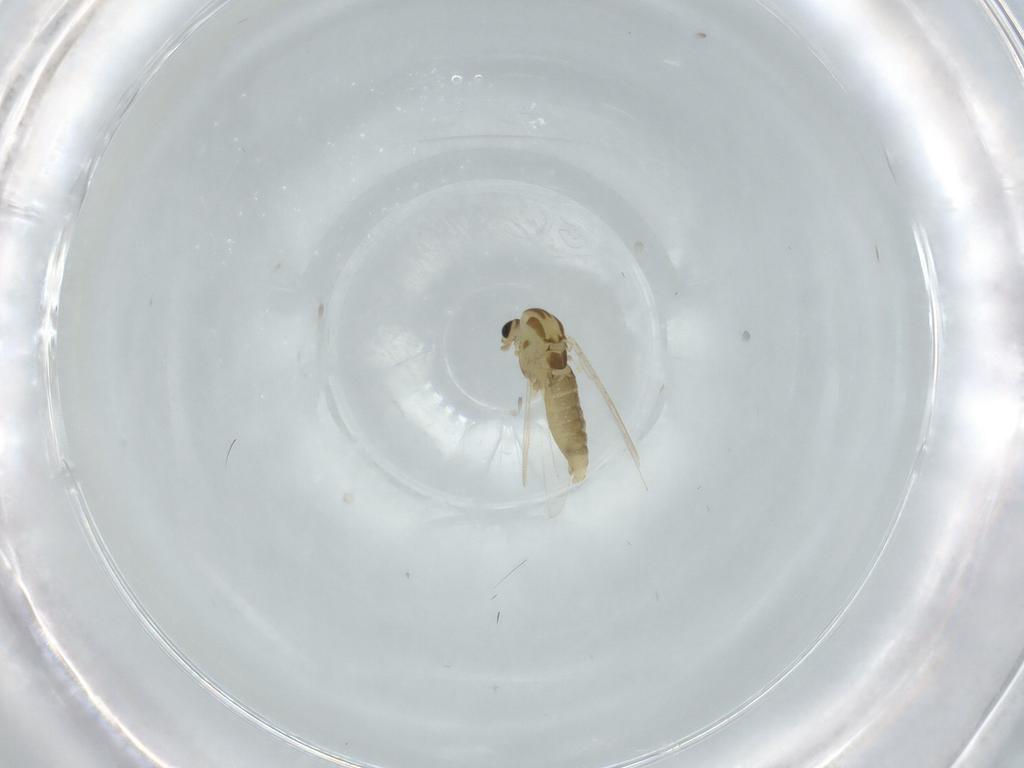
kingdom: Animalia
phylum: Arthropoda
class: Insecta
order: Diptera
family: Chironomidae
